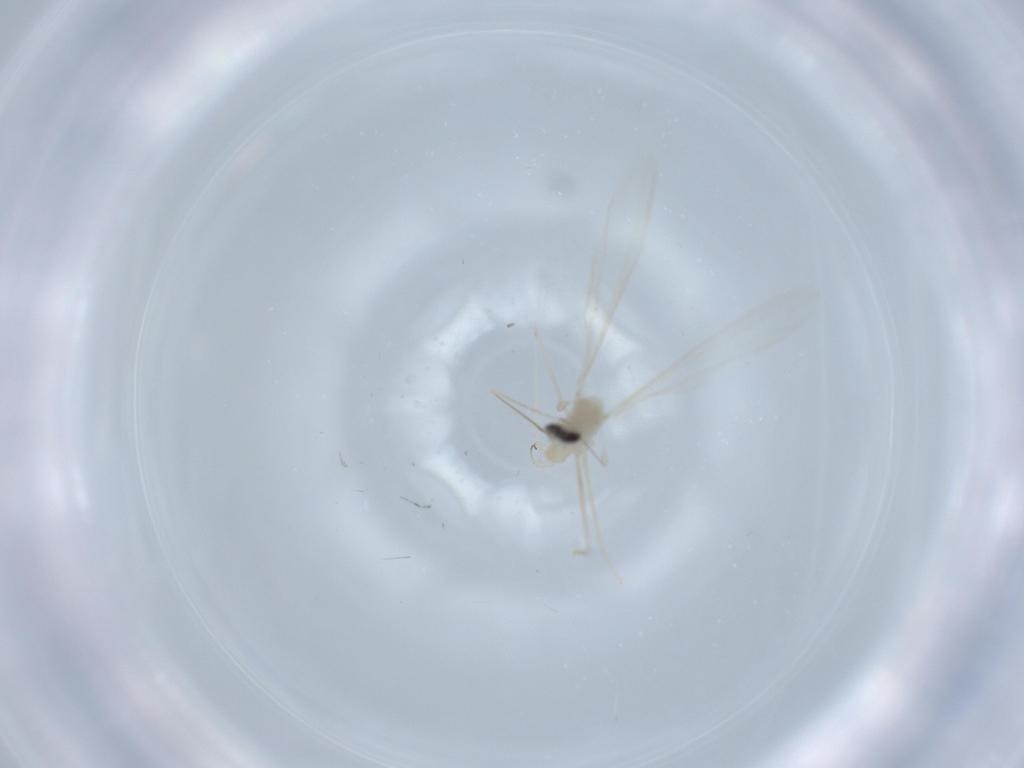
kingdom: Animalia
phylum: Arthropoda
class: Insecta
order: Diptera
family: Cecidomyiidae
